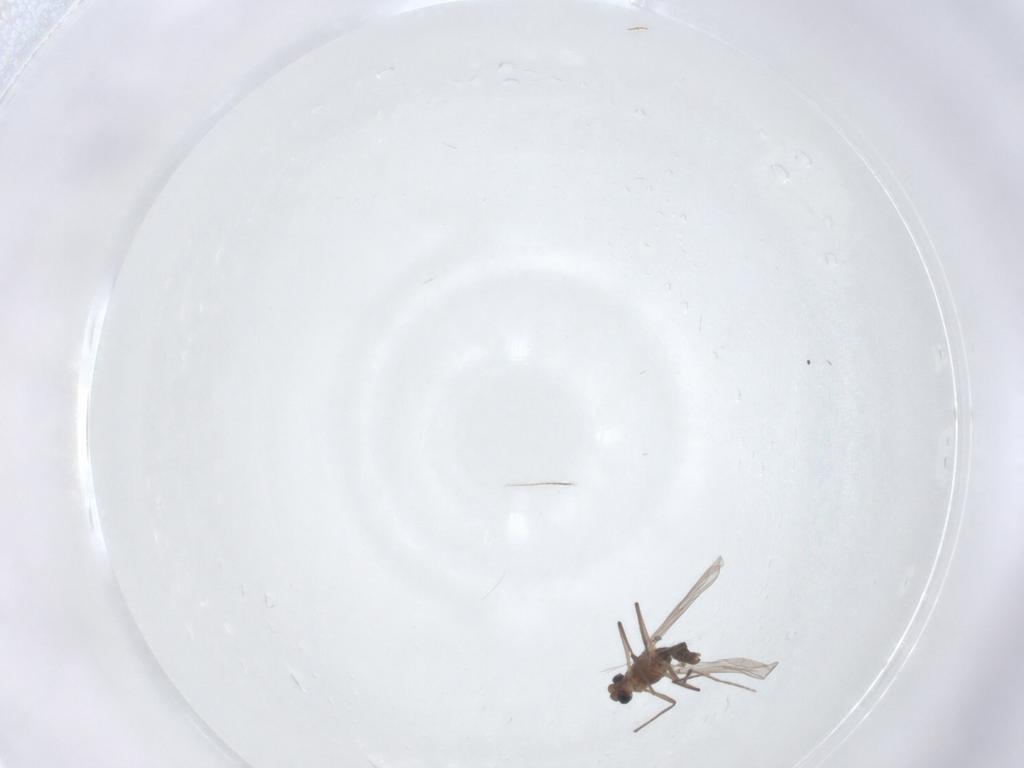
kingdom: Animalia
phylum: Arthropoda
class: Insecta
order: Diptera
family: Chironomidae
